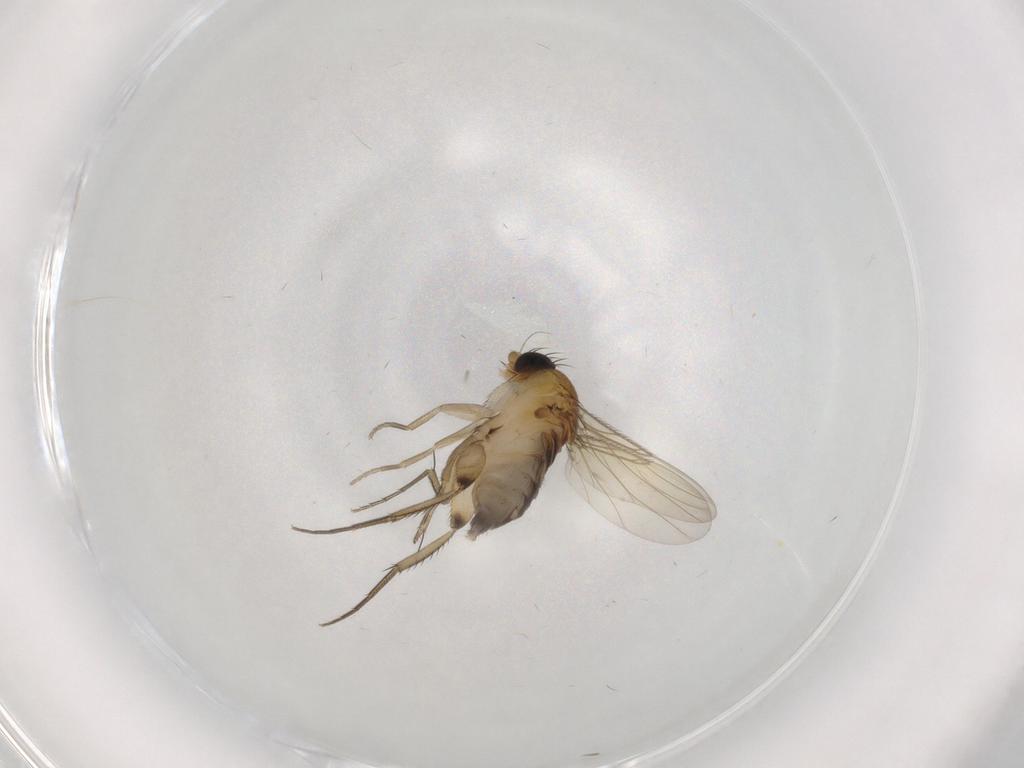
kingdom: Animalia
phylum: Arthropoda
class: Insecta
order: Diptera
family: Phoridae
